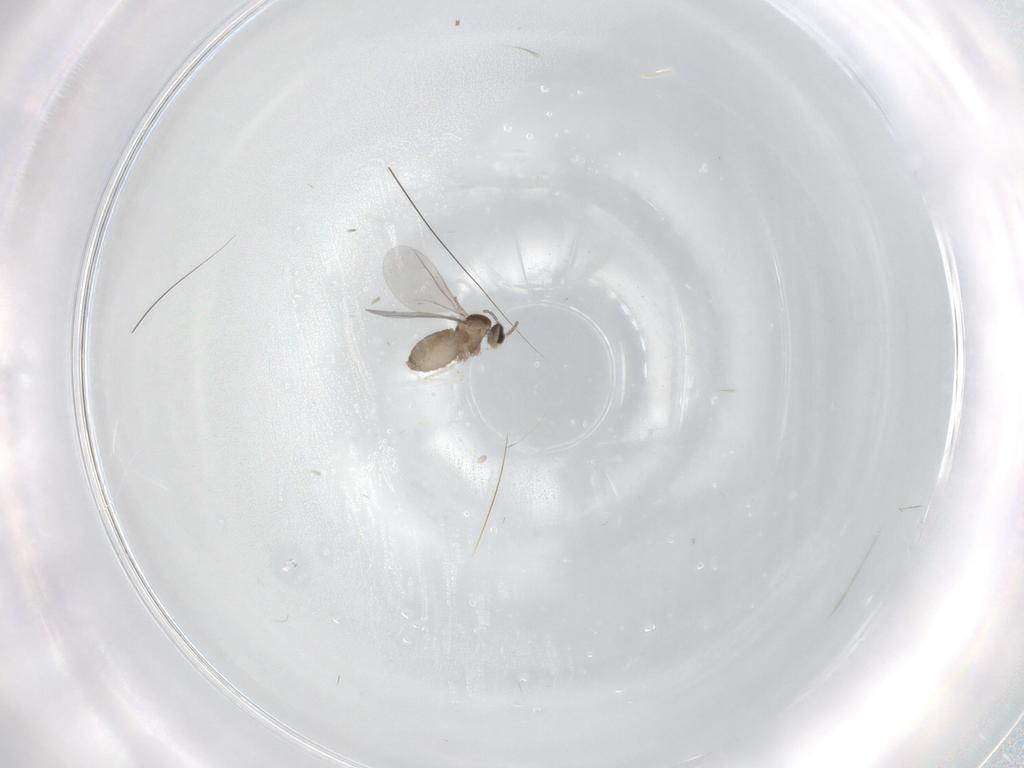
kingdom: Animalia
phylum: Arthropoda
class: Insecta
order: Diptera
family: Cecidomyiidae
